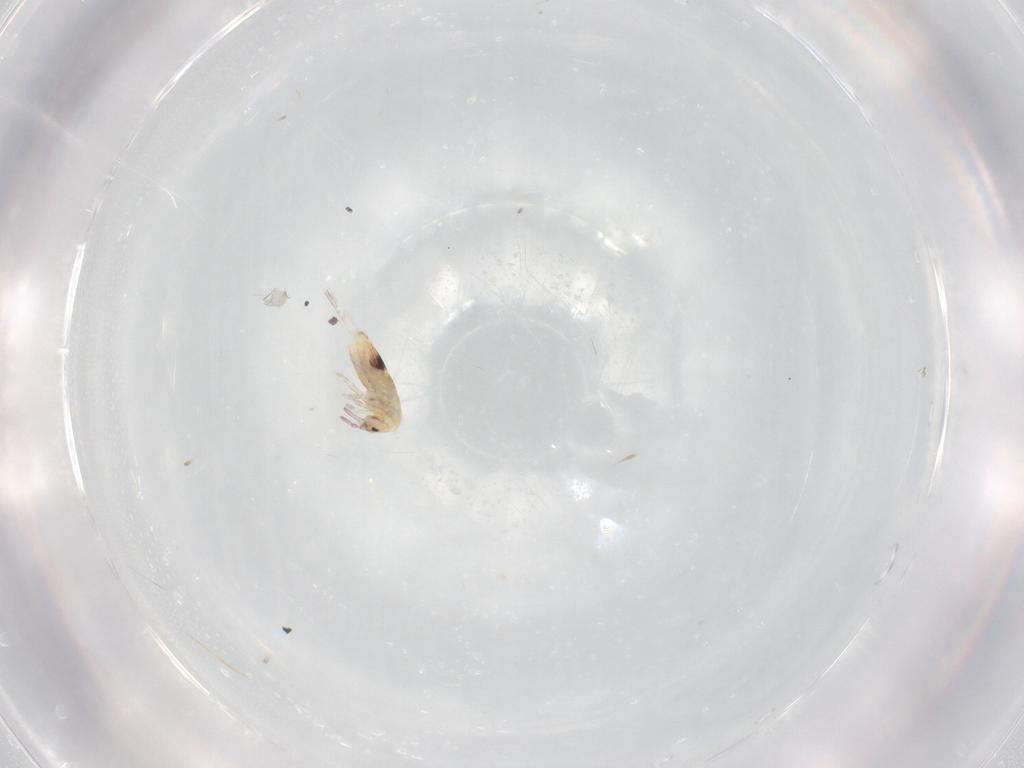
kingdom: Animalia
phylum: Arthropoda
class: Collembola
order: Entomobryomorpha
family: Entomobryidae
